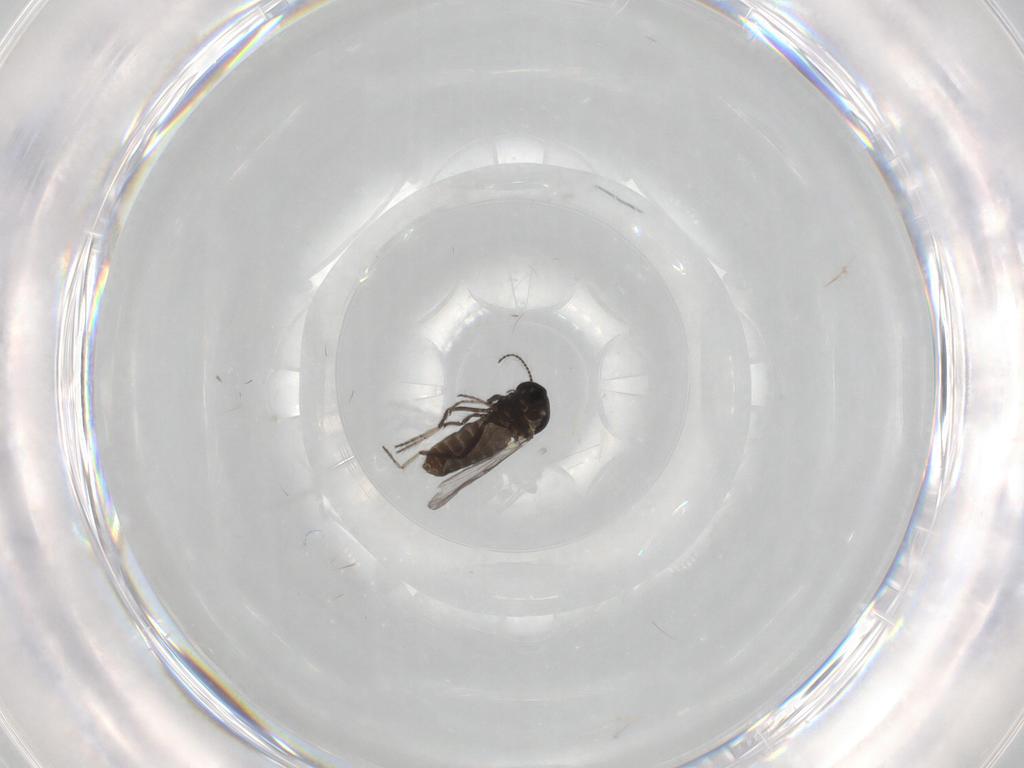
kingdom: Animalia
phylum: Arthropoda
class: Insecta
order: Diptera
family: Ceratopogonidae
